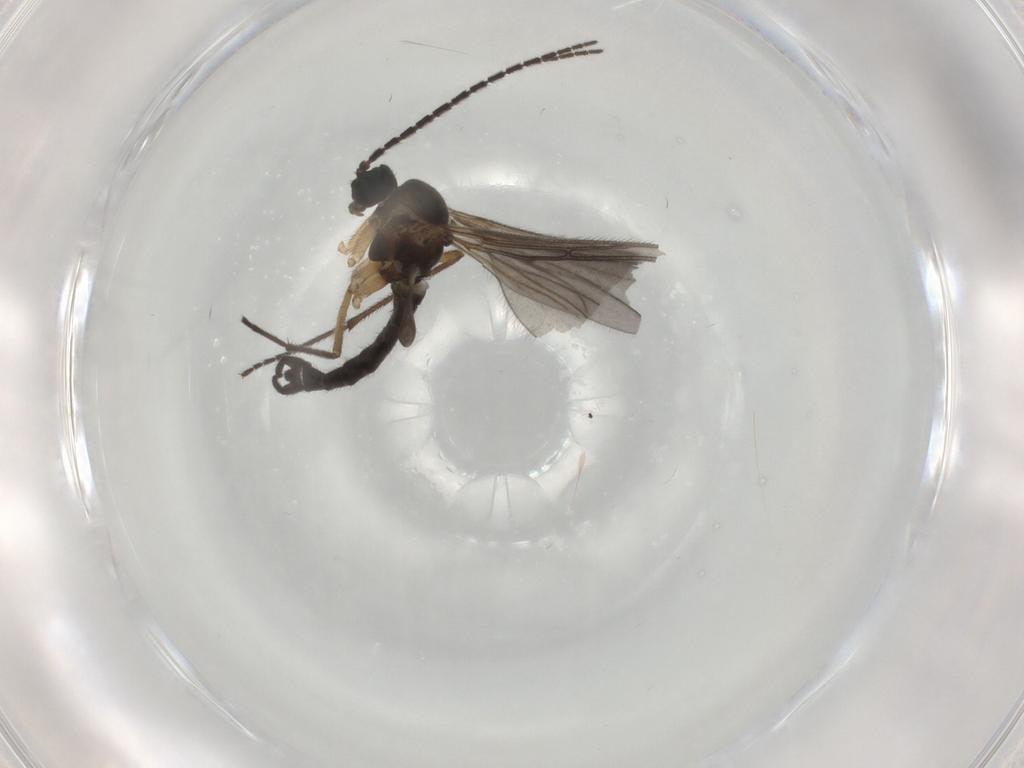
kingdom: Animalia
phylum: Arthropoda
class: Insecta
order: Diptera
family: Sciaridae
